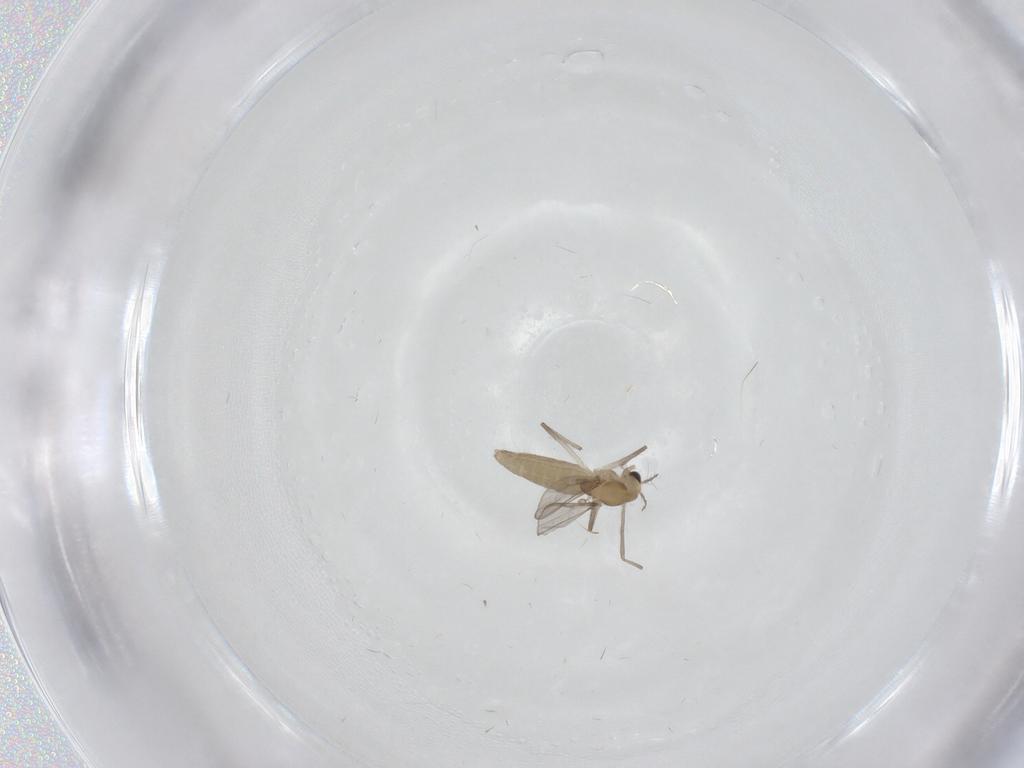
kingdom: Animalia
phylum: Arthropoda
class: Insecta
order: Diptera
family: Chironomidae
